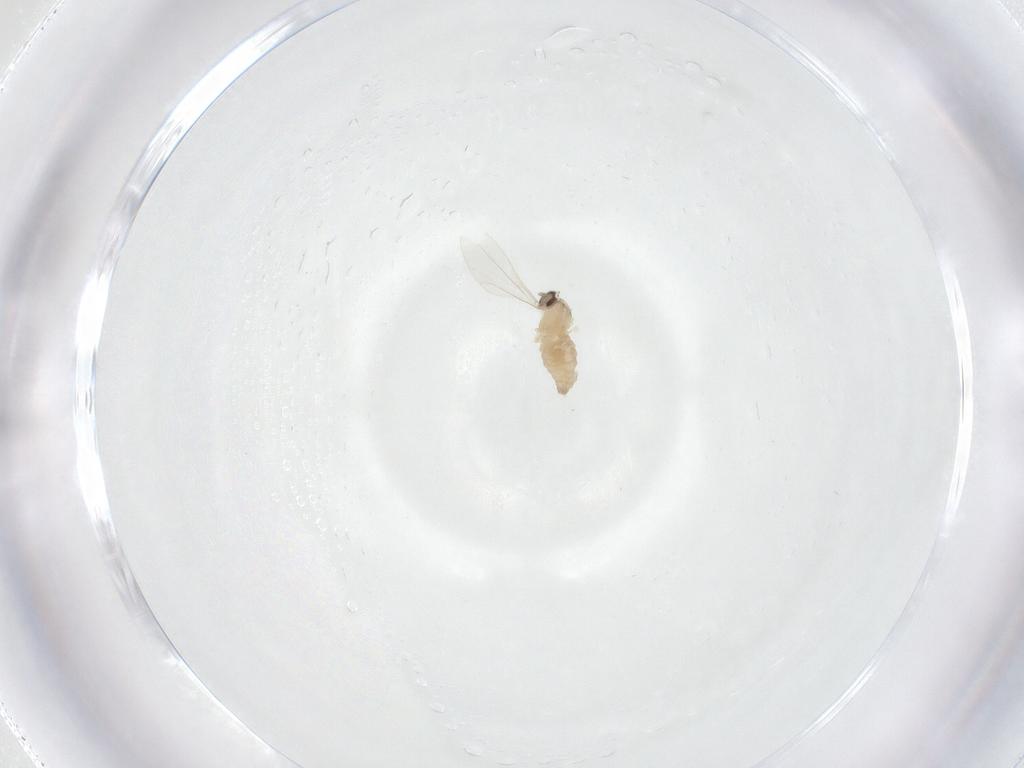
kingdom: Animalia
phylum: Arthropoda
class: Insecta
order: Diptera
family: Cecidomyiidae
